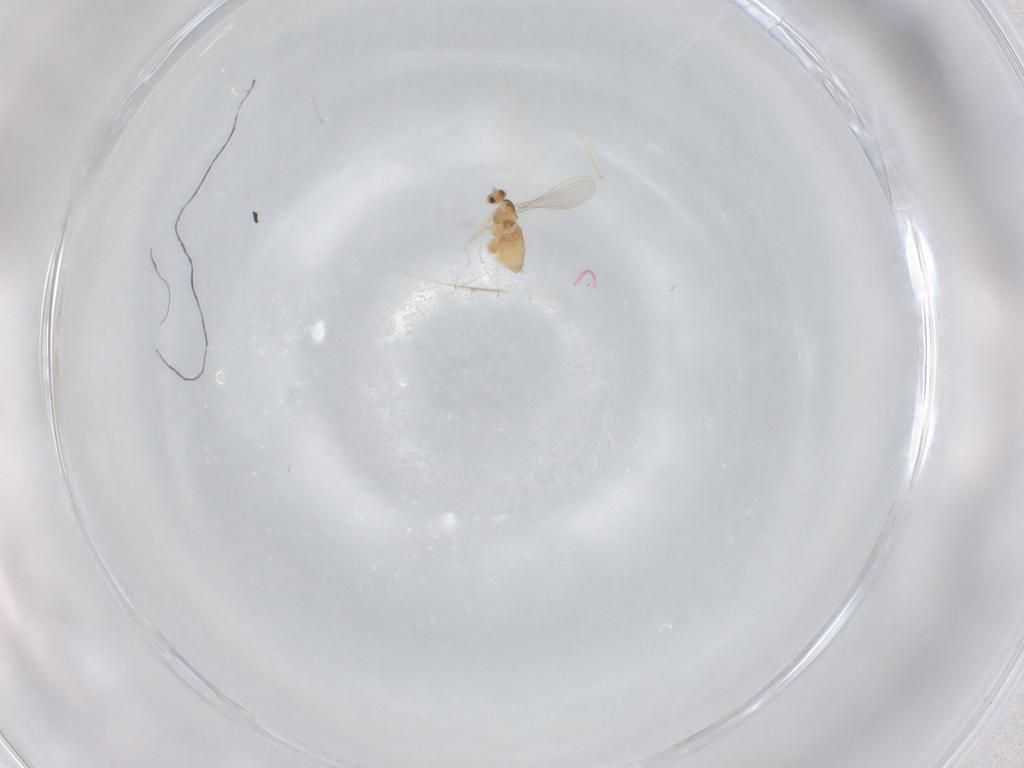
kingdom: Animalia
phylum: Arthropoda
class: Insecta
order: Diptera
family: Cecidomyiidae
